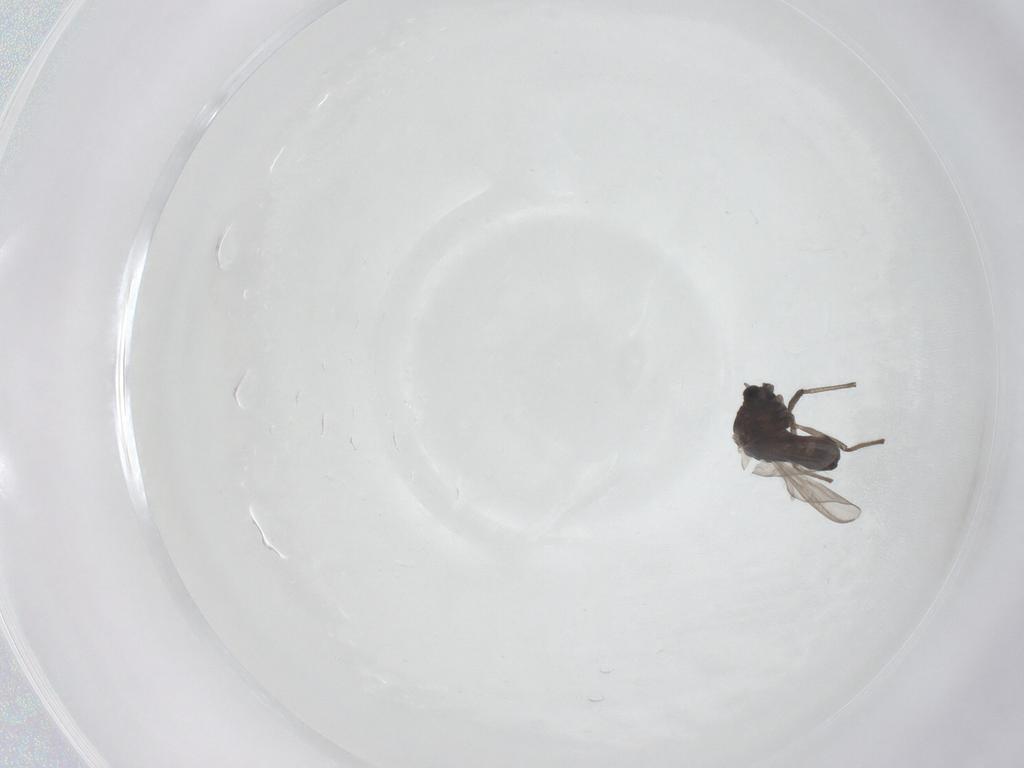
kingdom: Animalia
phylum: Arthropoda
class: Insecta
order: Diptera
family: Chironomidae
